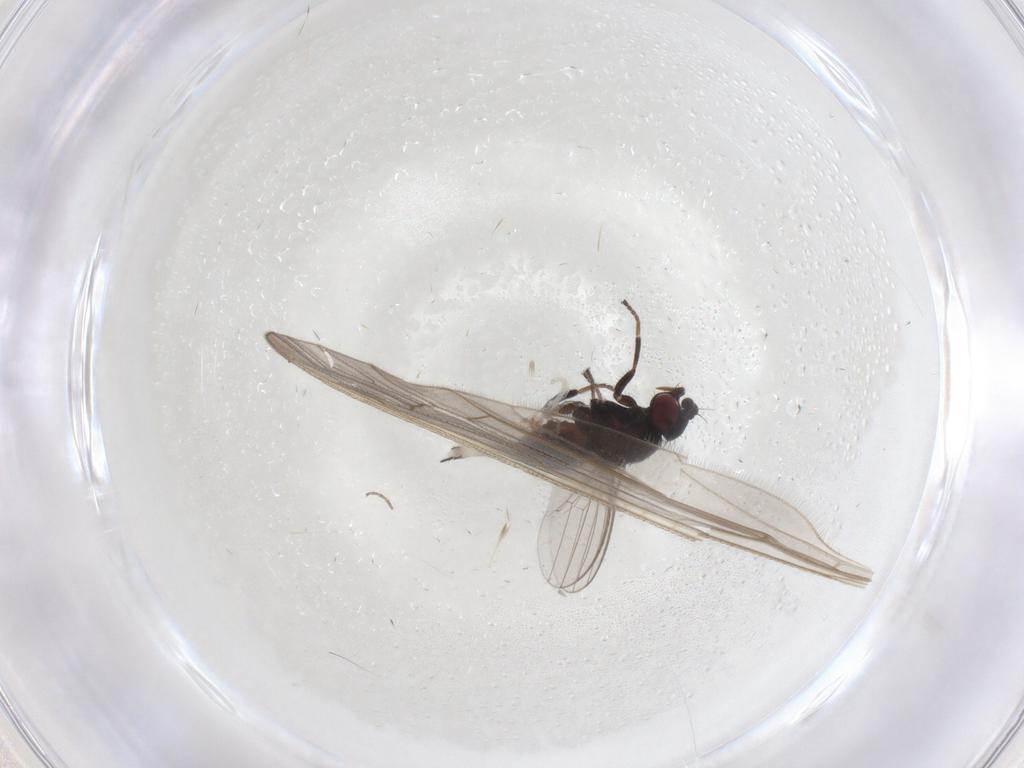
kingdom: Animalia
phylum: Arthropoda
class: Insecta
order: Diptera
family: Milichiidae
